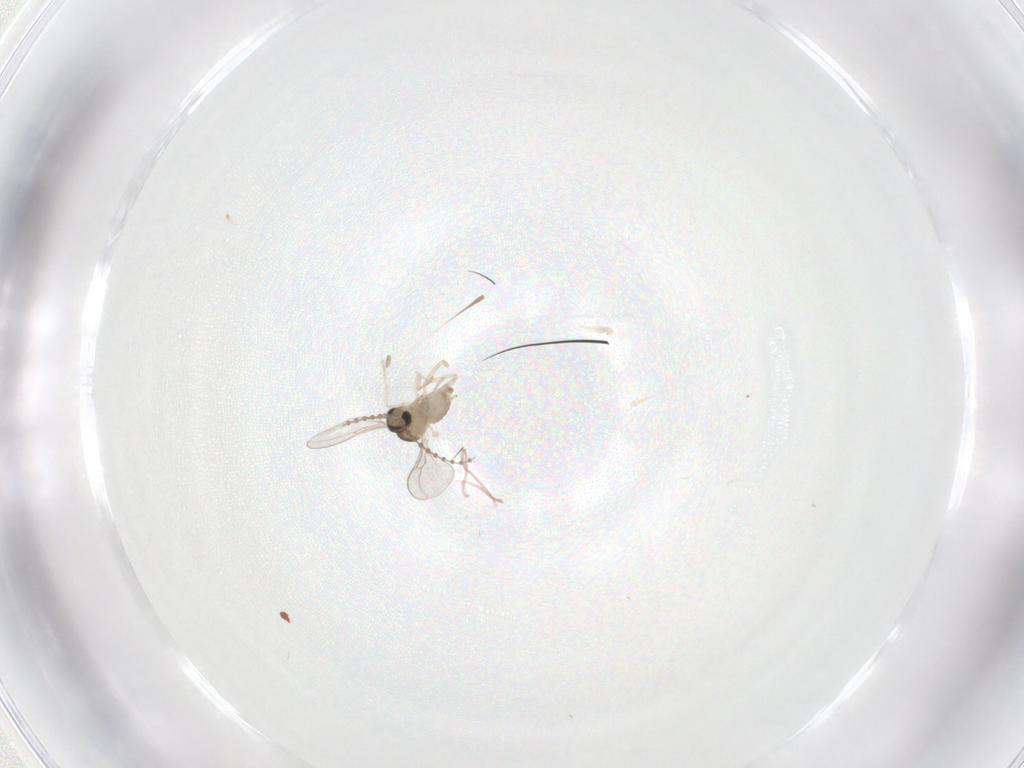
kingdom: Animalia
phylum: Arthropoda
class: Insecta
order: Diptera
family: Cecidomyiidae
